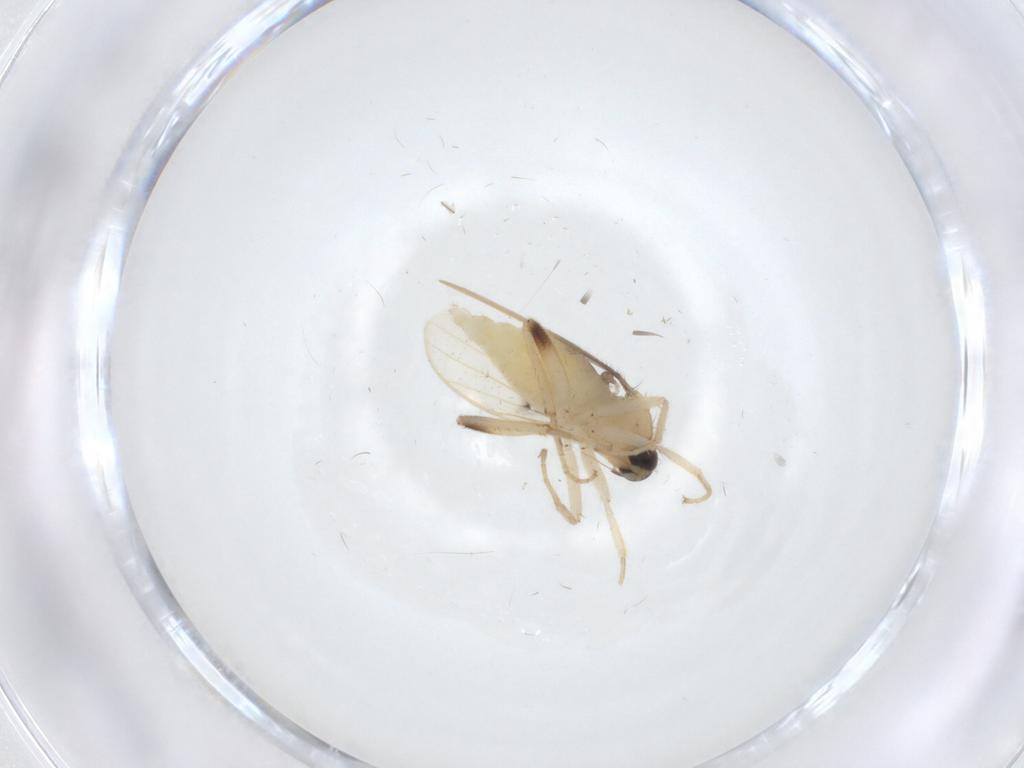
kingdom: Animalia
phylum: Arthropoda
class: Insecta
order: Diptera
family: Hybotidae
